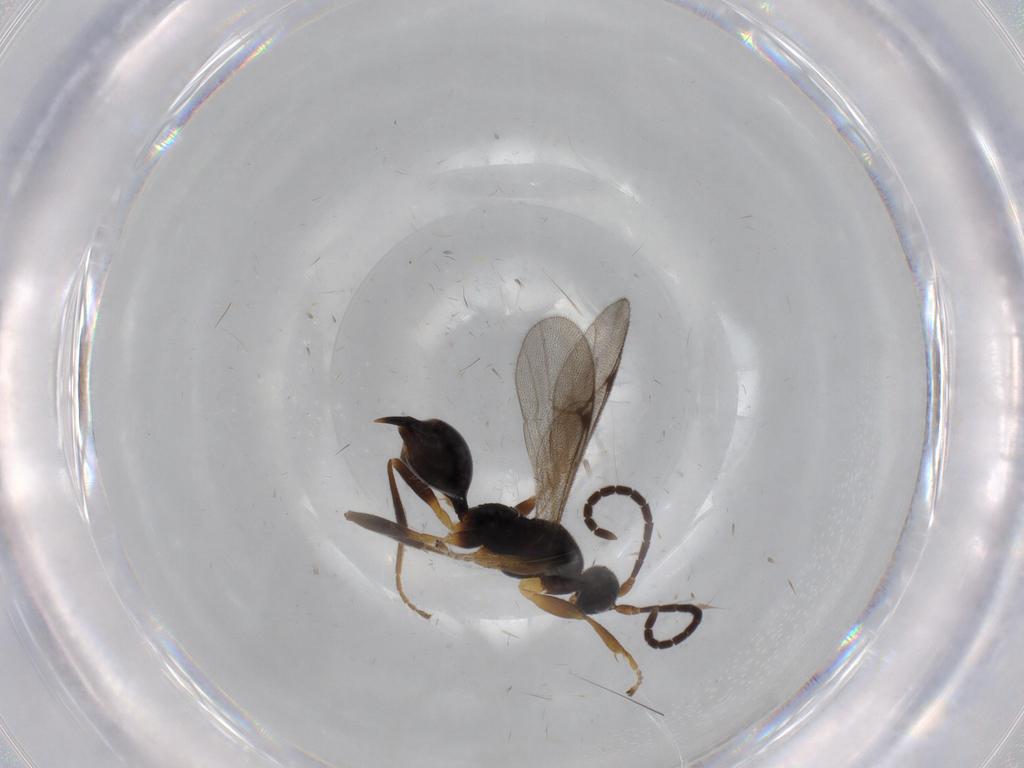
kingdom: Animalia
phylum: Arthropoda
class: Insecta
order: Hymenoptera
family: Proctotrupidae
